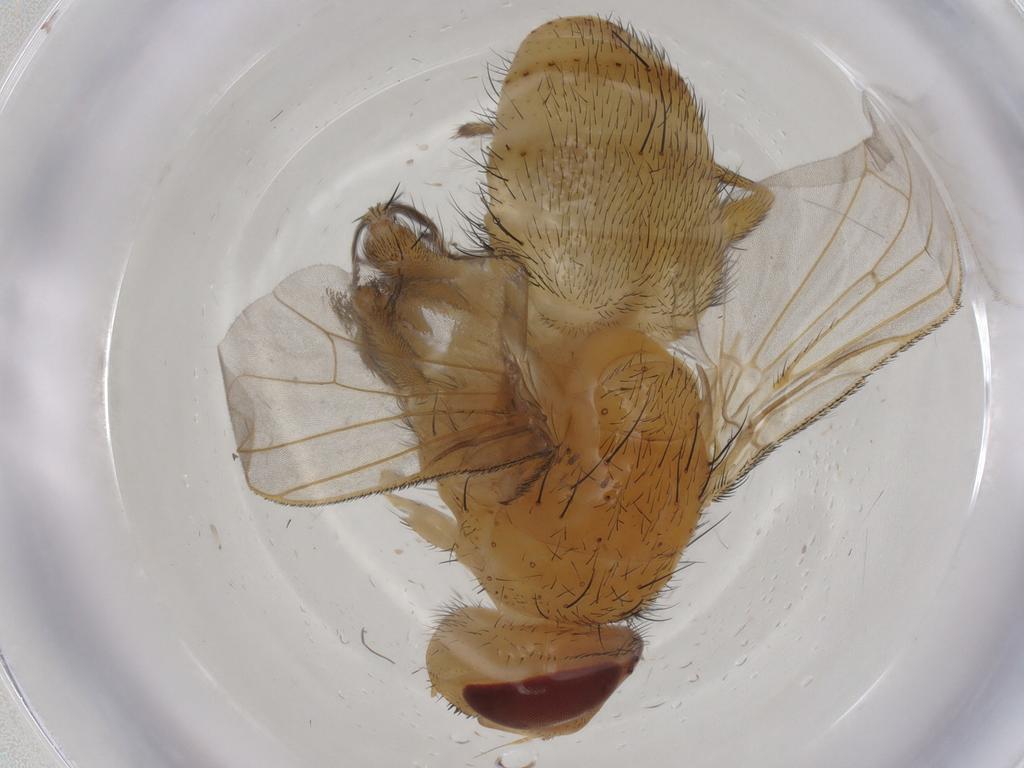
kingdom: Animalia
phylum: Arthropoda
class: Insecta
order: Diptera
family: Tachinidae
